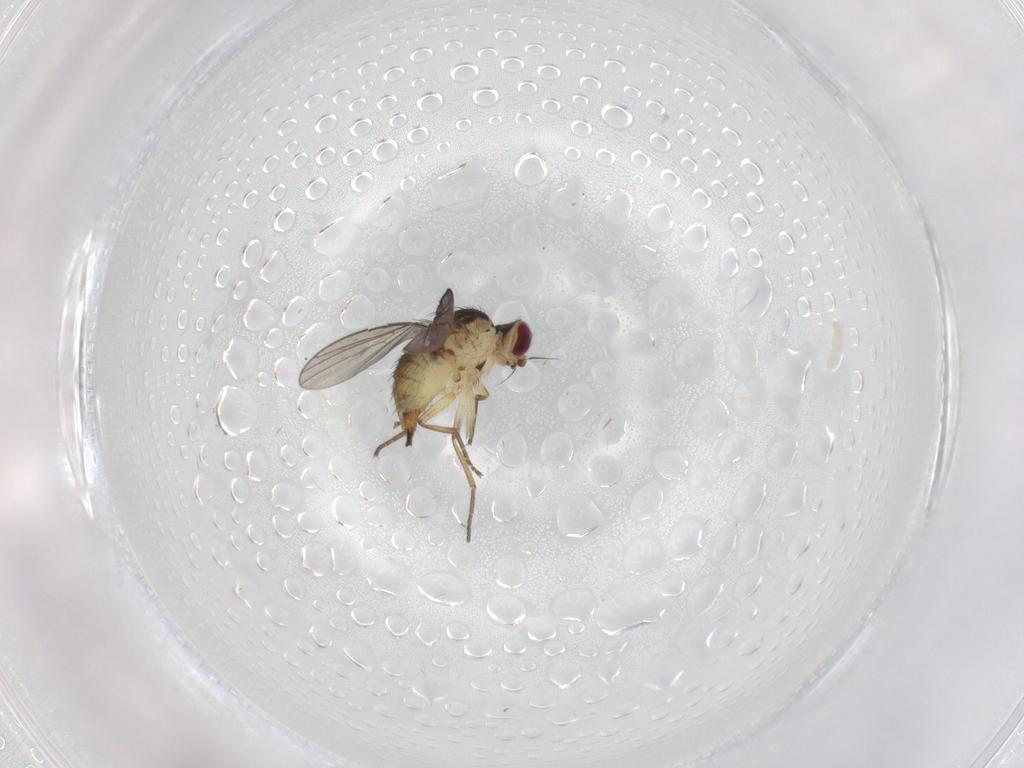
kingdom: Animalia
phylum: Arthropoda
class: Insecta
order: Diptera
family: Agromyzidae
